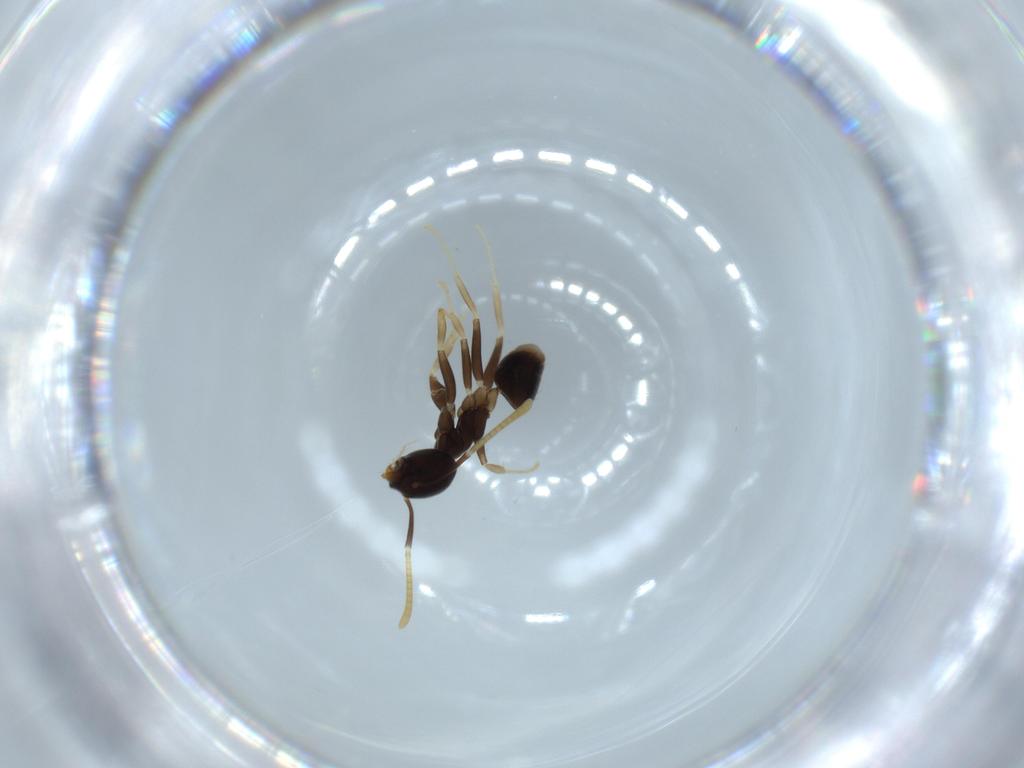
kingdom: Animalia
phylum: Arthropoda
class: Insecta
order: Hymenoptera
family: Formicidae
